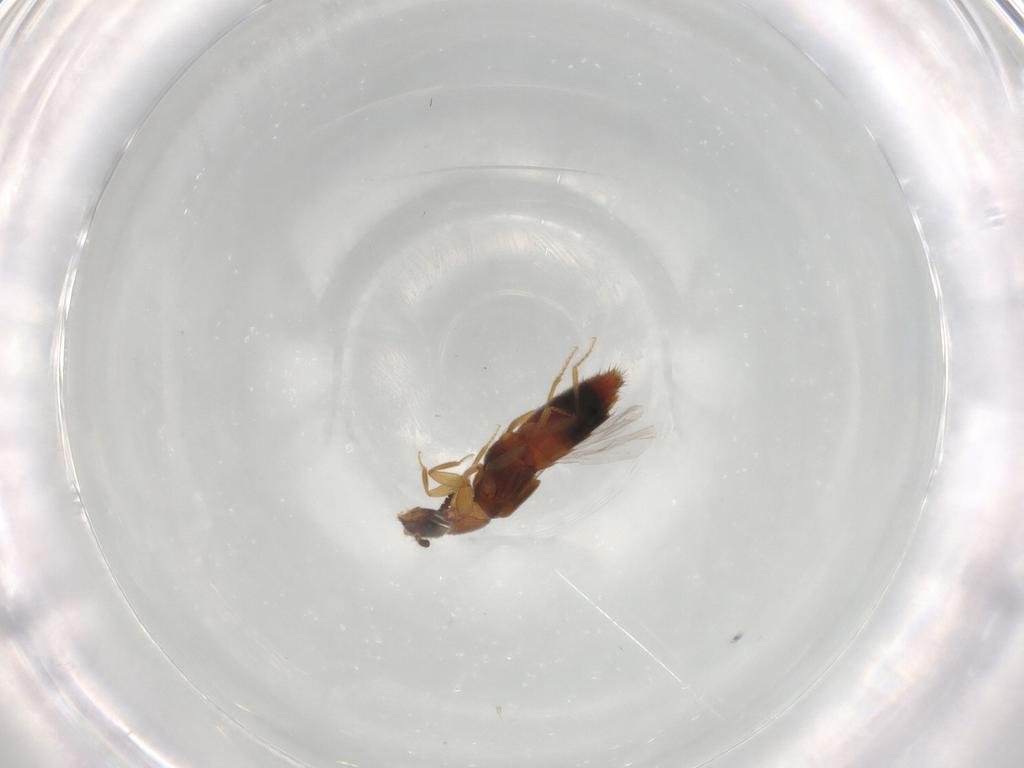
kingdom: Animalia
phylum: Arthropoda
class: Insecta
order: Coleoptera
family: Staphylinidae
